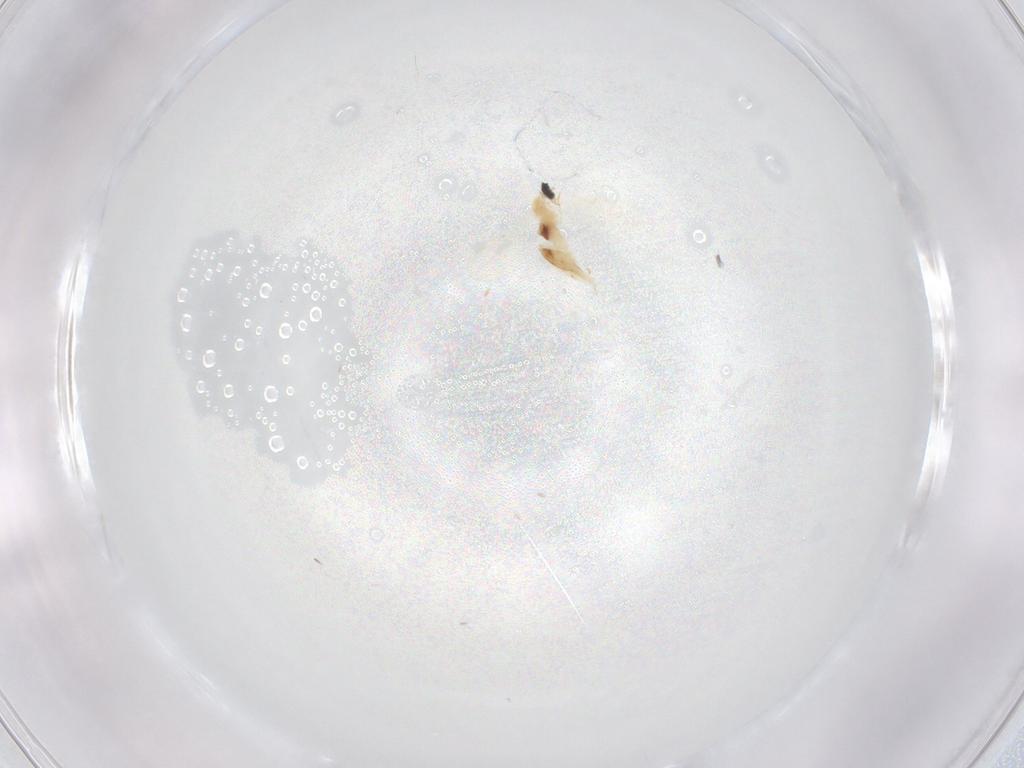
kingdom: Animalia
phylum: Arthropoda
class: Insecta
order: Diptera
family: Cecidomyiidae
